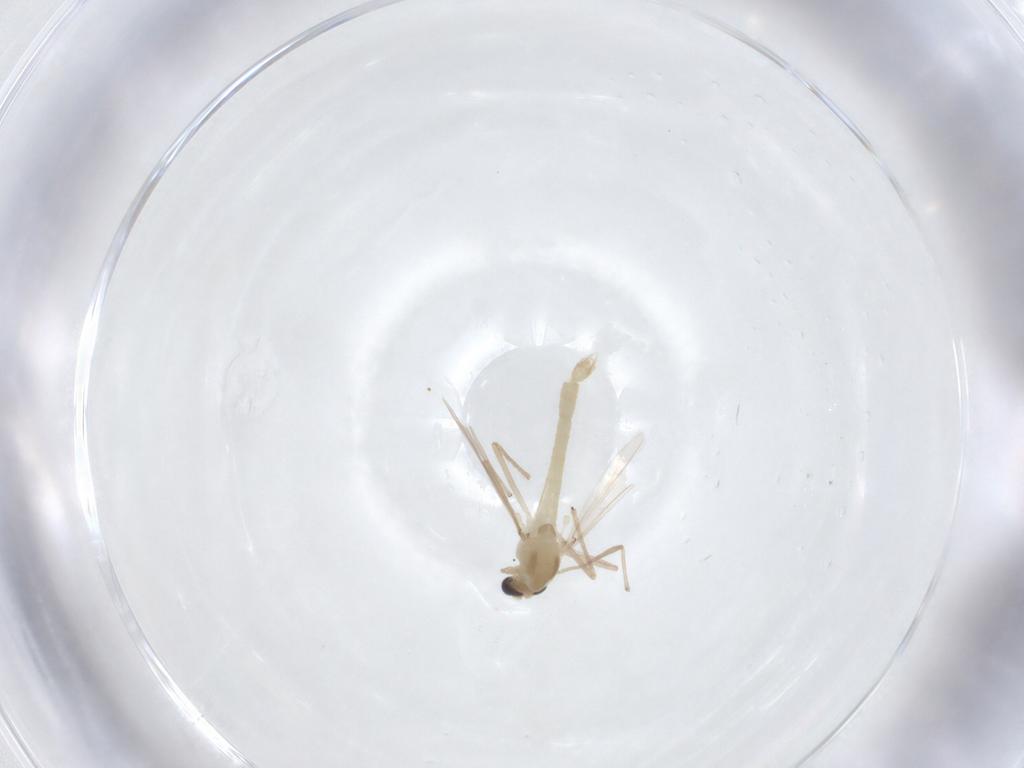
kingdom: Animalia
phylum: Arthropoda
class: Insecta
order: Diptera
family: Chironomidae
